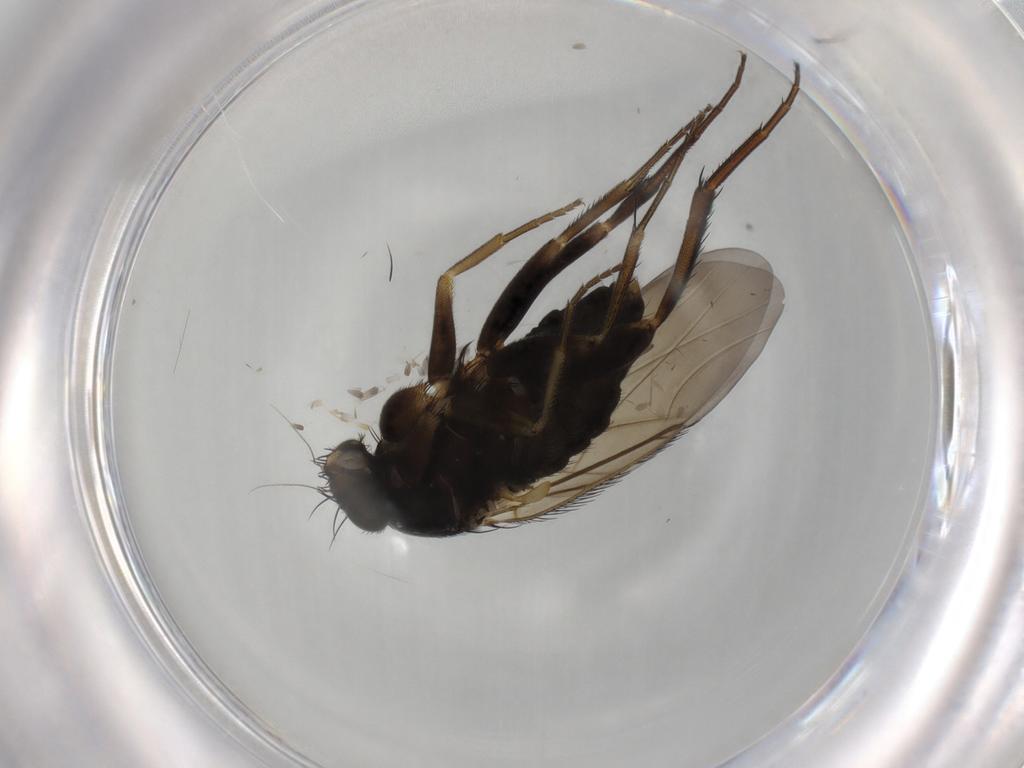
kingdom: Animalia
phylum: Arthropoda
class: Insecta
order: Diptera
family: Phoridae
